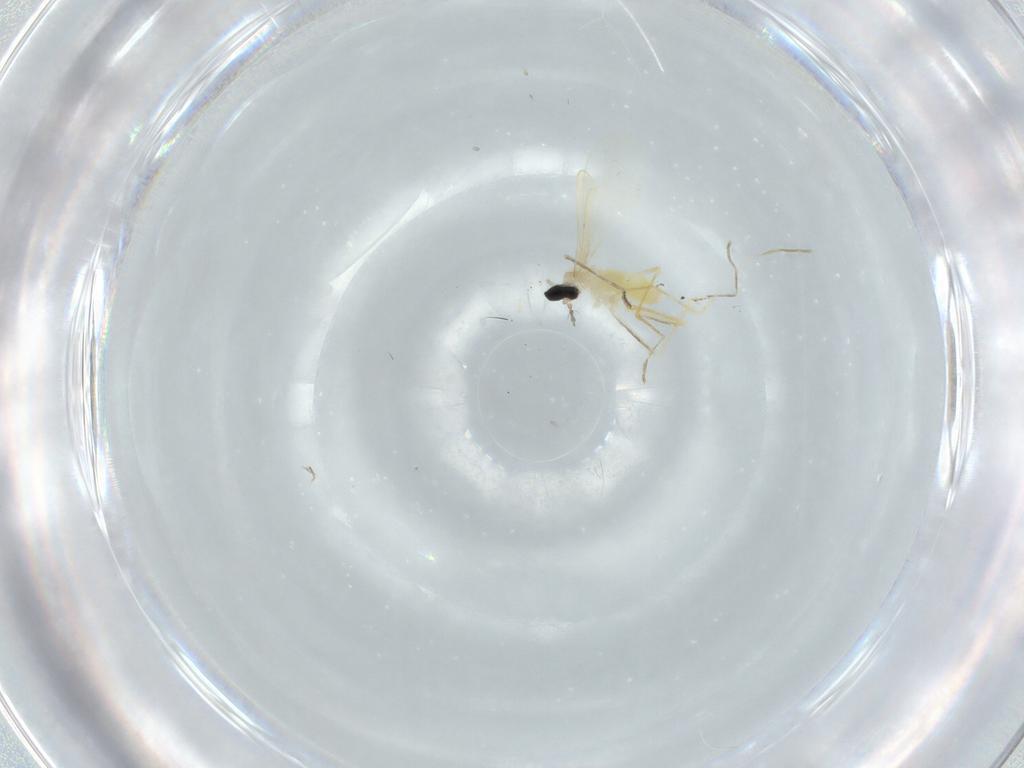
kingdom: Animalia
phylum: Arthropoda
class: Insecta
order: Diptera
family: Cecidomyiidae
